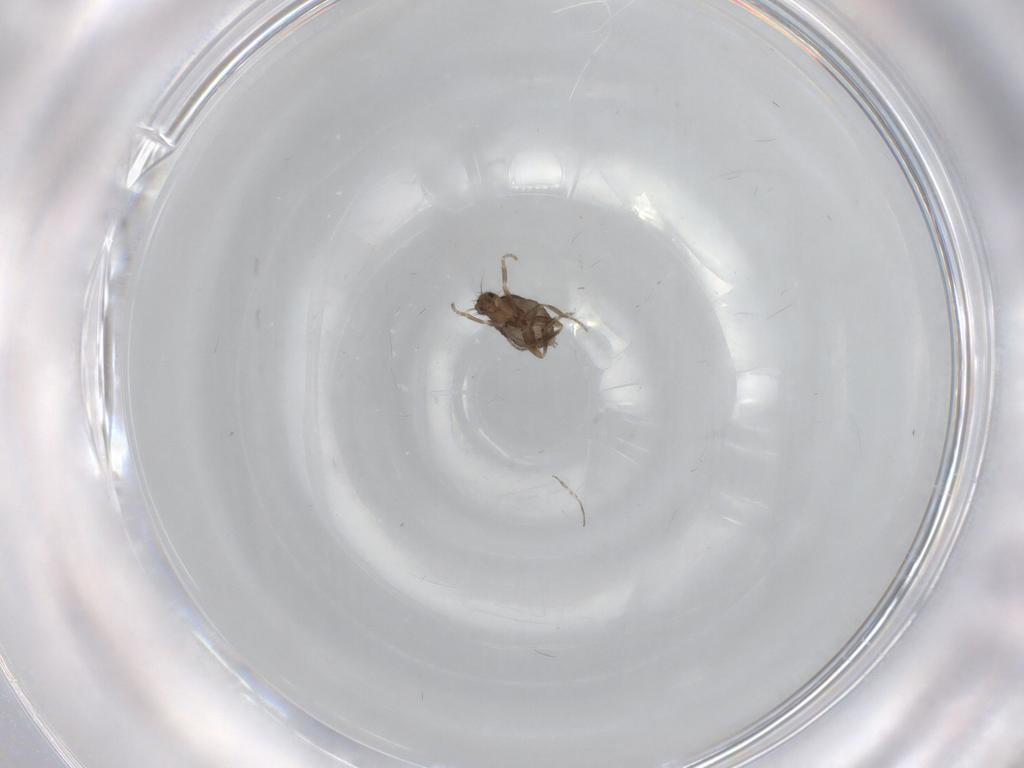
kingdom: Animalia
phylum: Arthropoda
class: Insecta
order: Diptera
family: Phoridae
